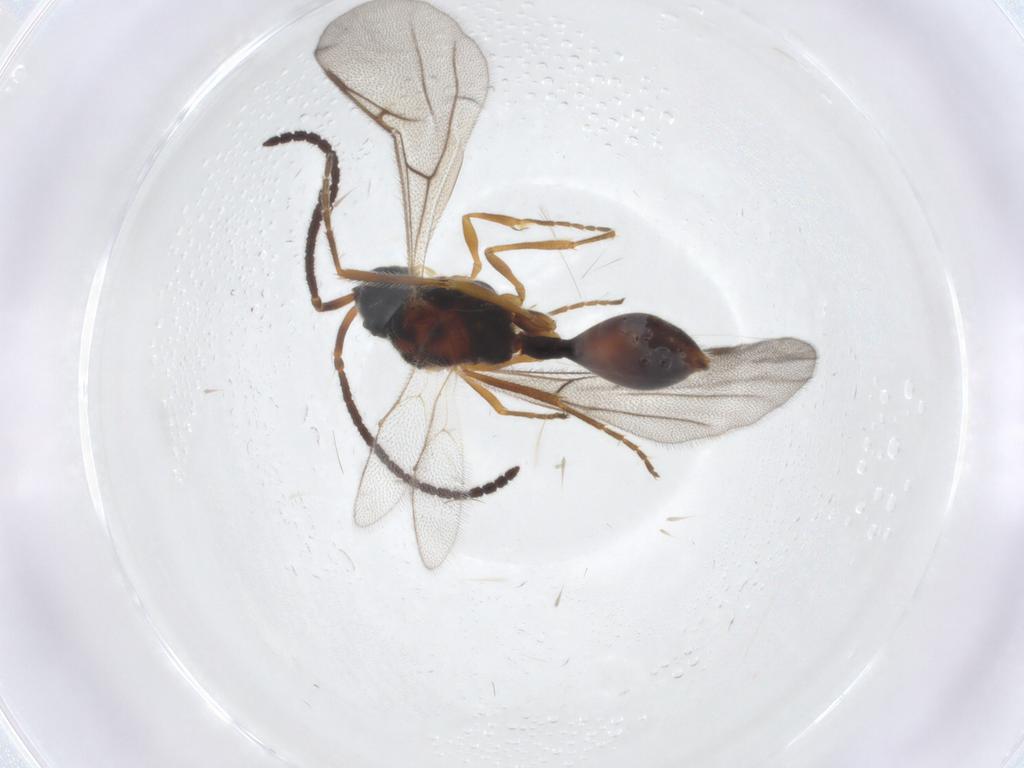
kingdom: Animalia
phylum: Arthropoda
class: Insecta
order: Hymenoptera
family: Diapriidae
